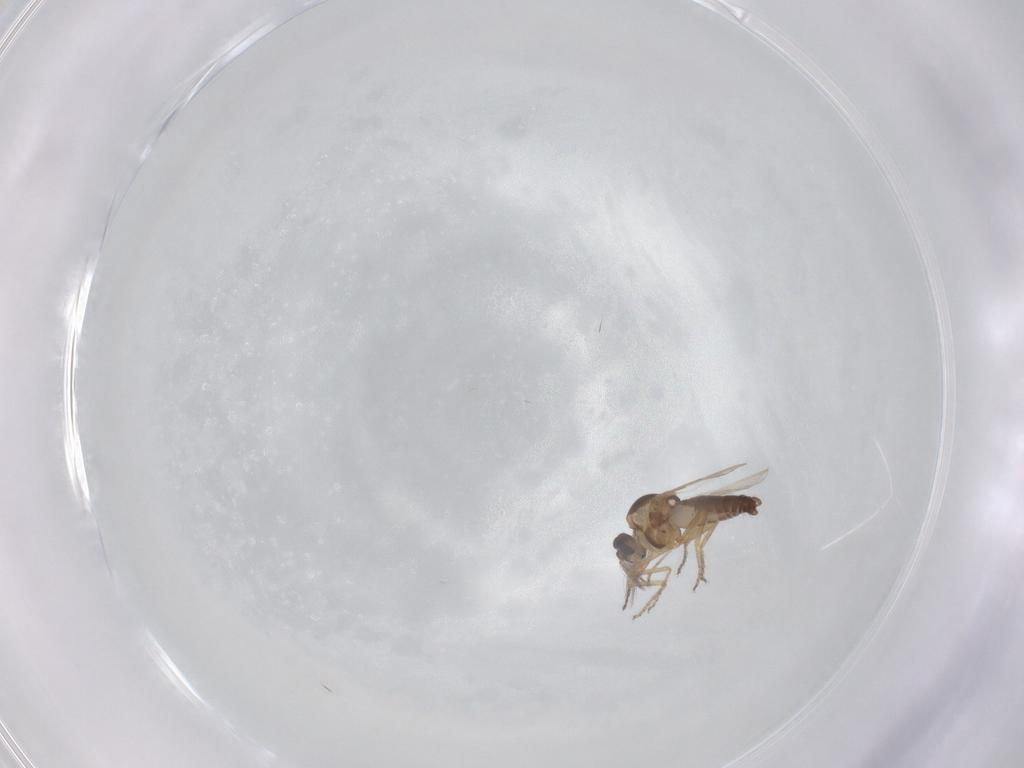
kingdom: Animalia
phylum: Arthropoda
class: Insecta
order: Diptera
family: Ceratopogonidae
